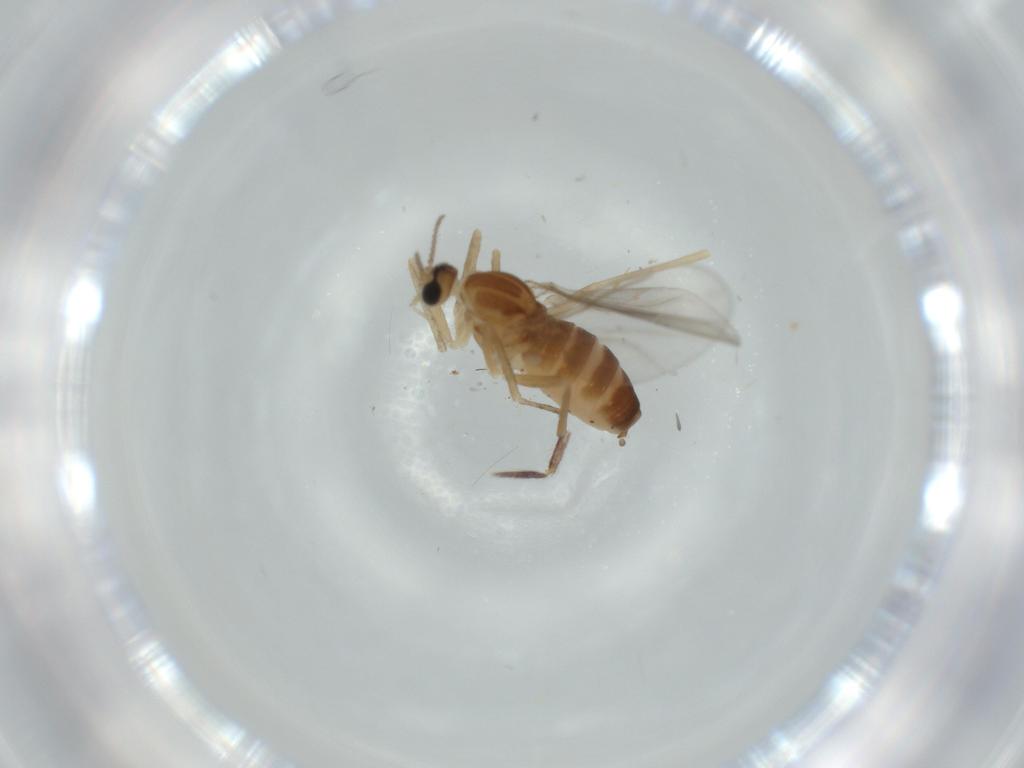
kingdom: Animalia
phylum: Arthropoda
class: Insecta
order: Diptera
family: Cecidomyiidae
